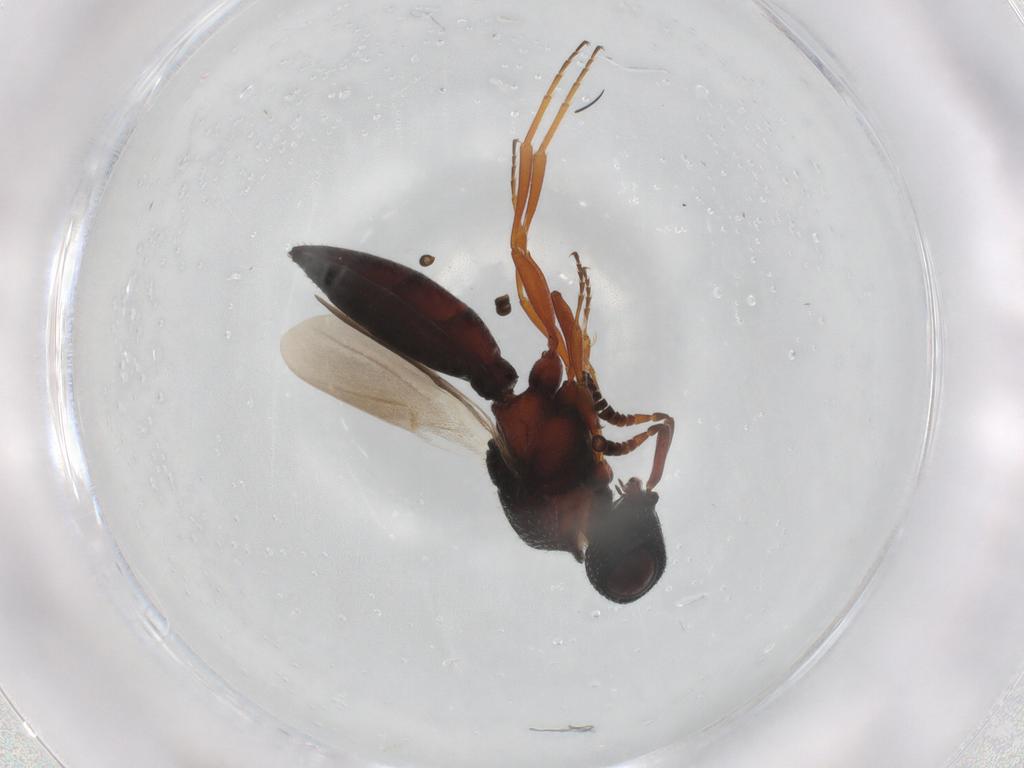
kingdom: Animalia
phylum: Arthropoda
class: Insecta
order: Hymenoptera
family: Scelionidae
